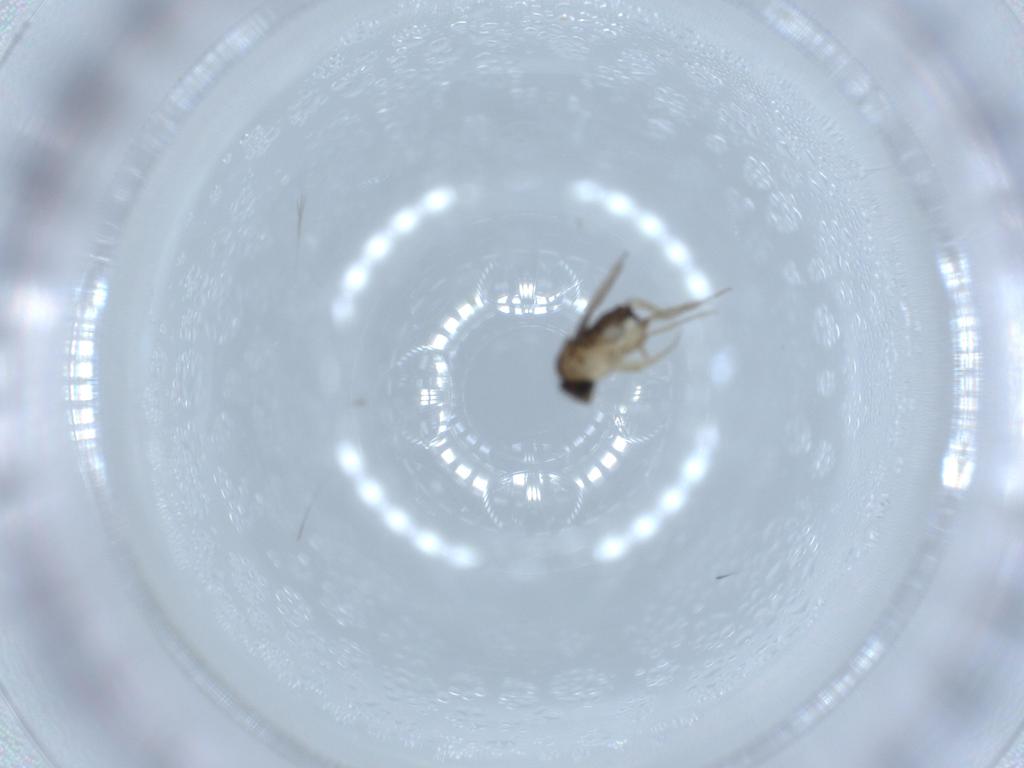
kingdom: Animalia
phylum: Arthropoda
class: Insecta
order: Diptera
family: Phoridae
